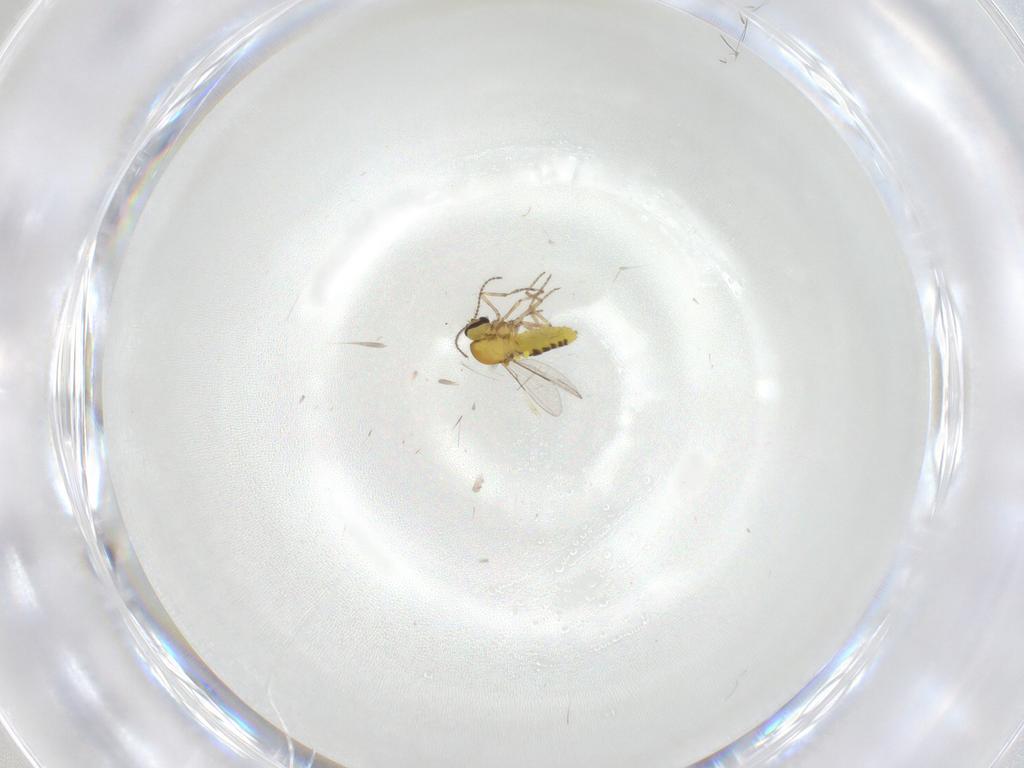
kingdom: Animalia
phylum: Arthropoda
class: Insecta
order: Diptera
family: Ceratopogonidae
